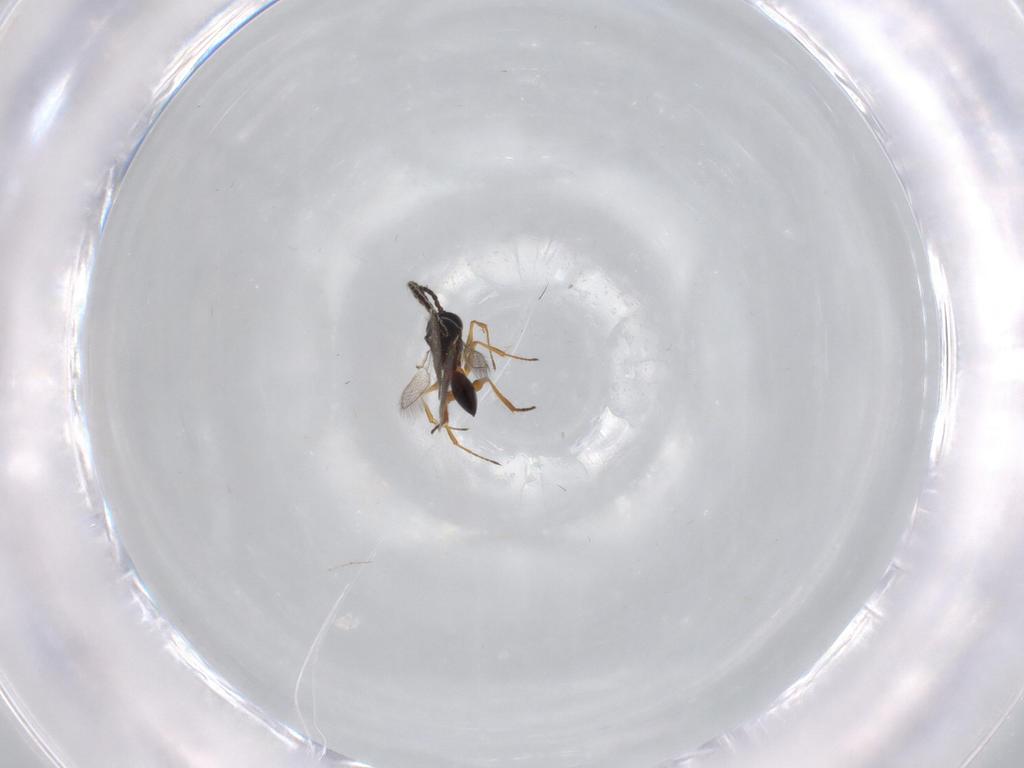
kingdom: Animalia
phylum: Arthropoda
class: Insecta
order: Hymenoptera
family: Figitidae
